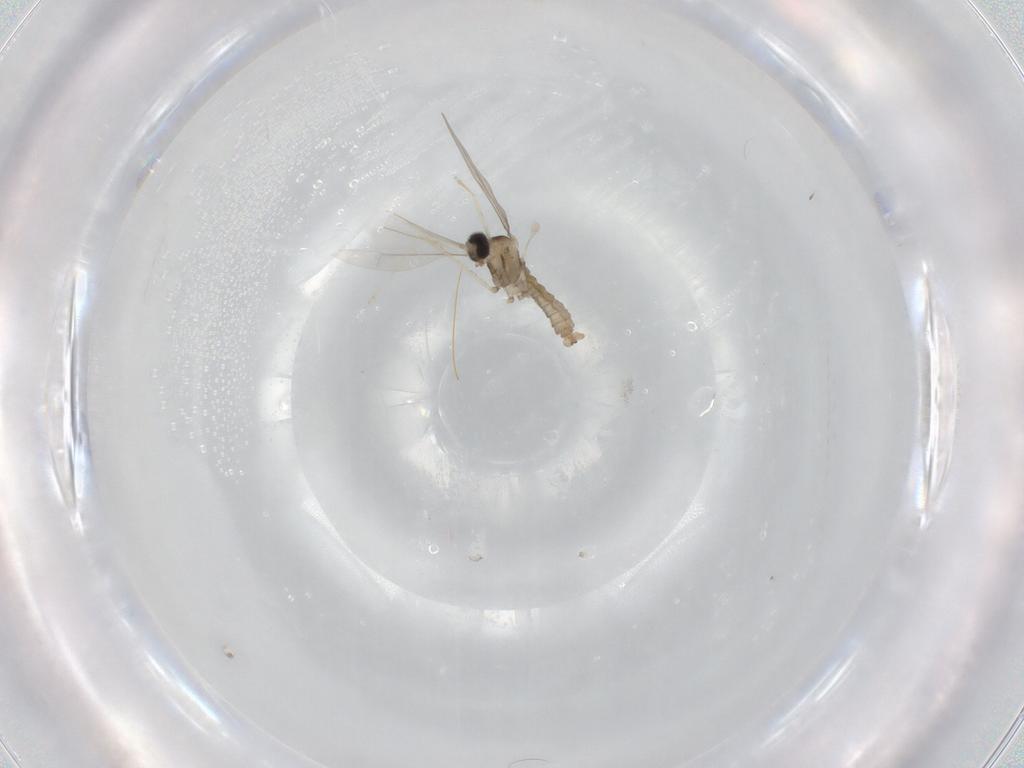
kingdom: Animalia
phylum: Arthropoda
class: Insecta
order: Diptera
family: Cecidomyiidae
